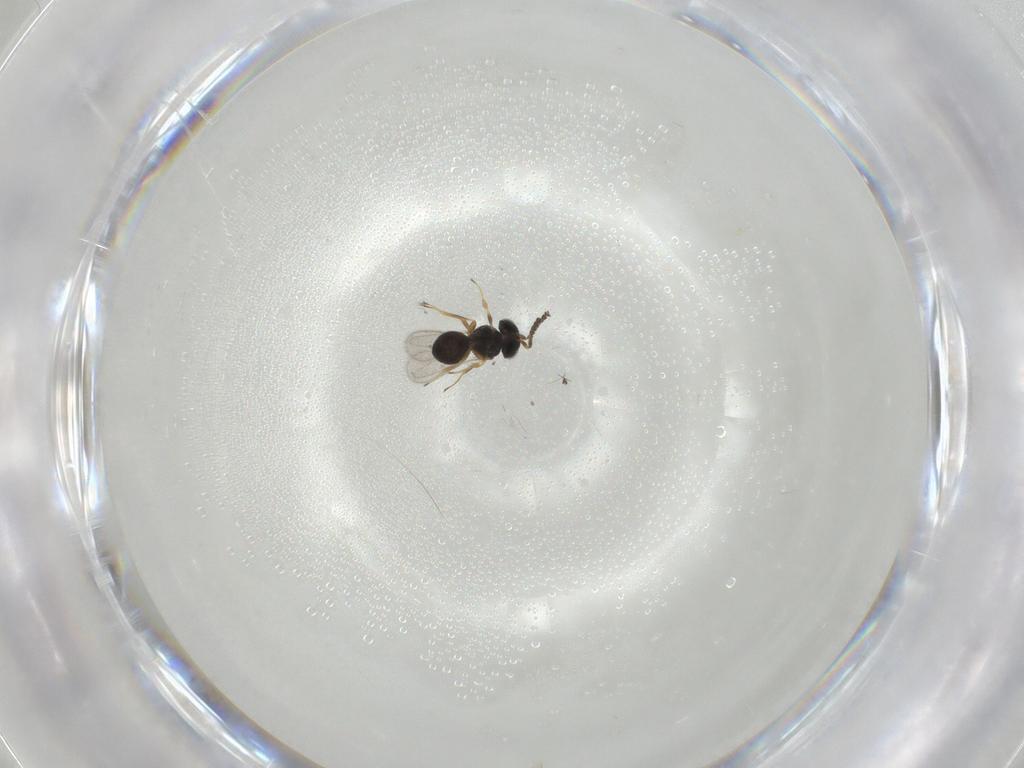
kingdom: Animalia
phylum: Arthropoda
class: Insecta
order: Hymenoptera
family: Scelionidae
